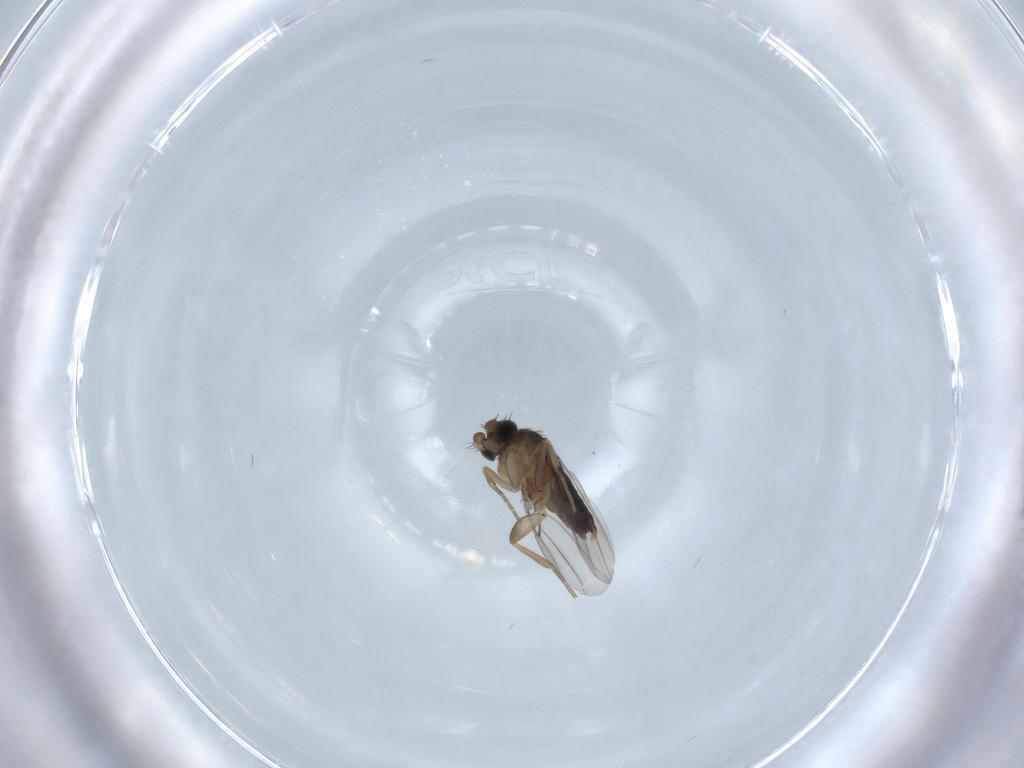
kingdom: Animalia
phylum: Arthropoda
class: Insecta
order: Diptera
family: Phoridae
